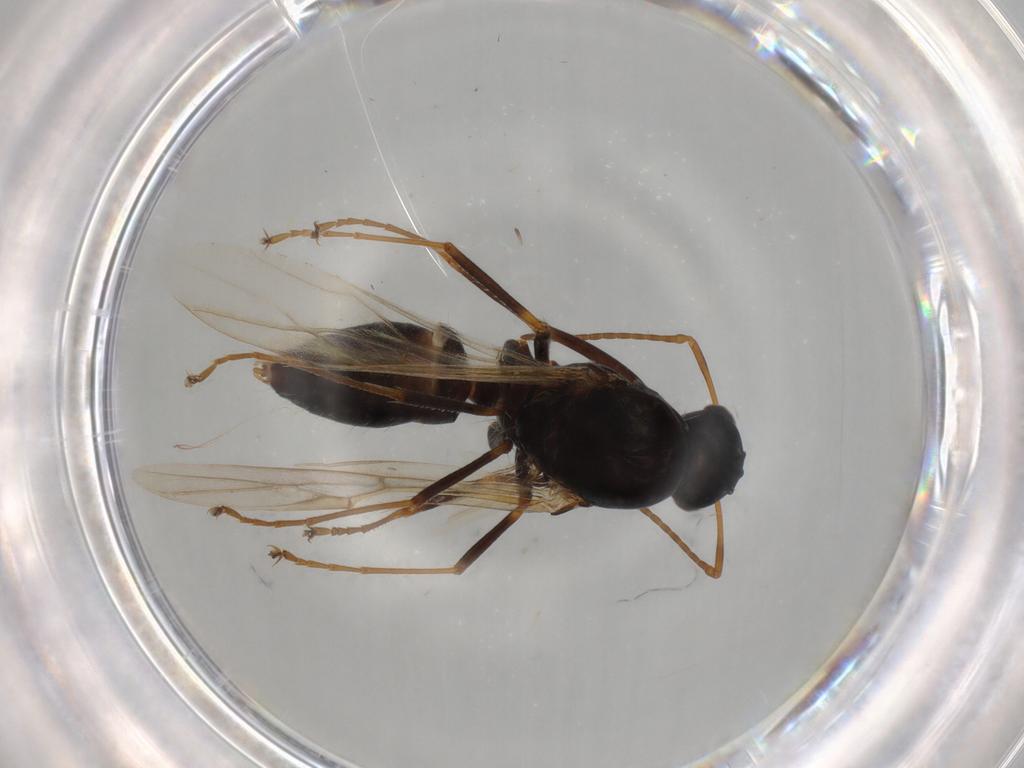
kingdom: Animalia
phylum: Arthropoda
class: Insecta
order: Hymenoptera
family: Formicidae
